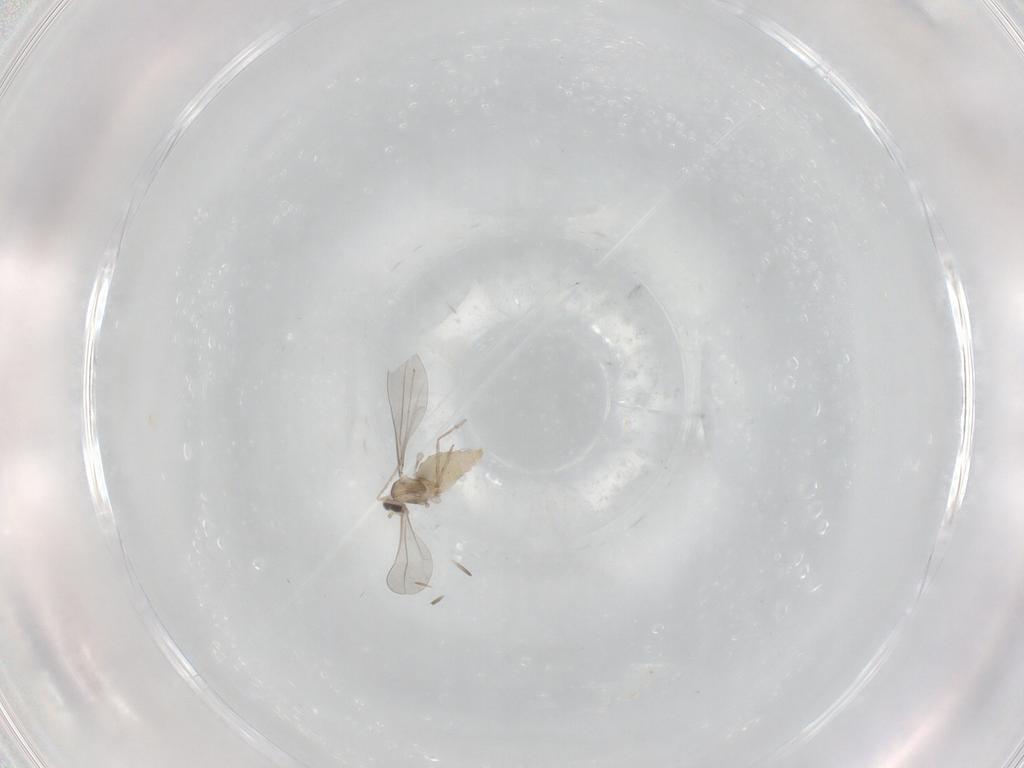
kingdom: Animalia
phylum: Arthropoda
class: Insecta
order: Diptera
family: Cecidomyiidae
